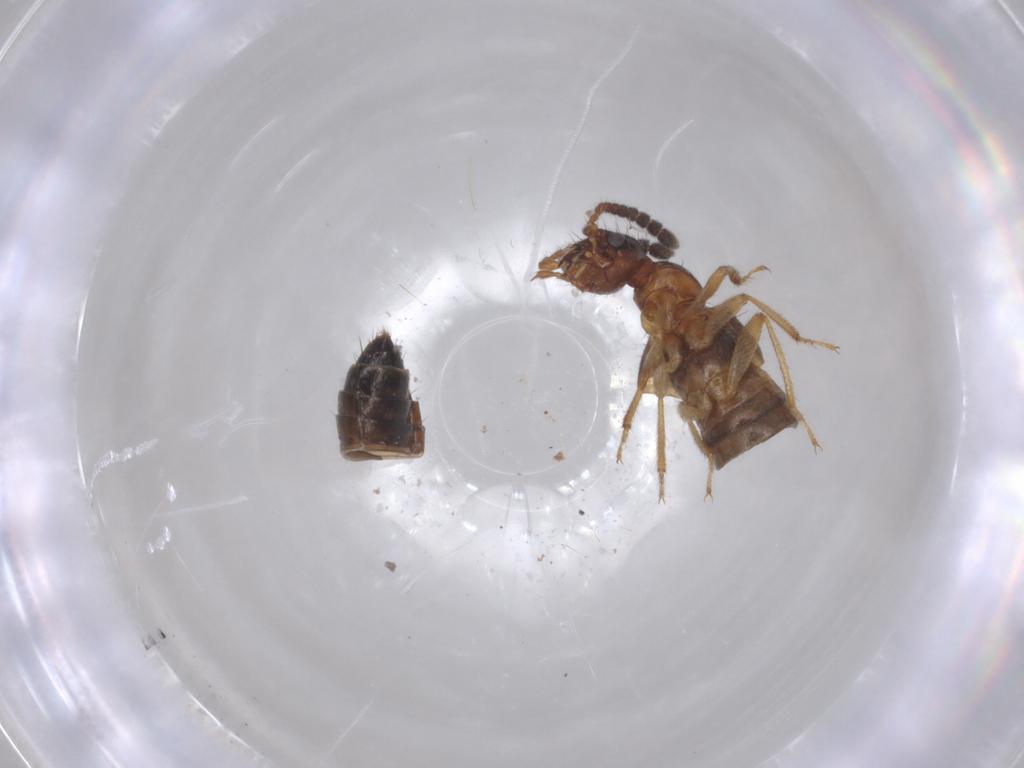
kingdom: Animalia
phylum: Arthropoda
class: Insecta
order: Coleoptera
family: Staphylinidae
